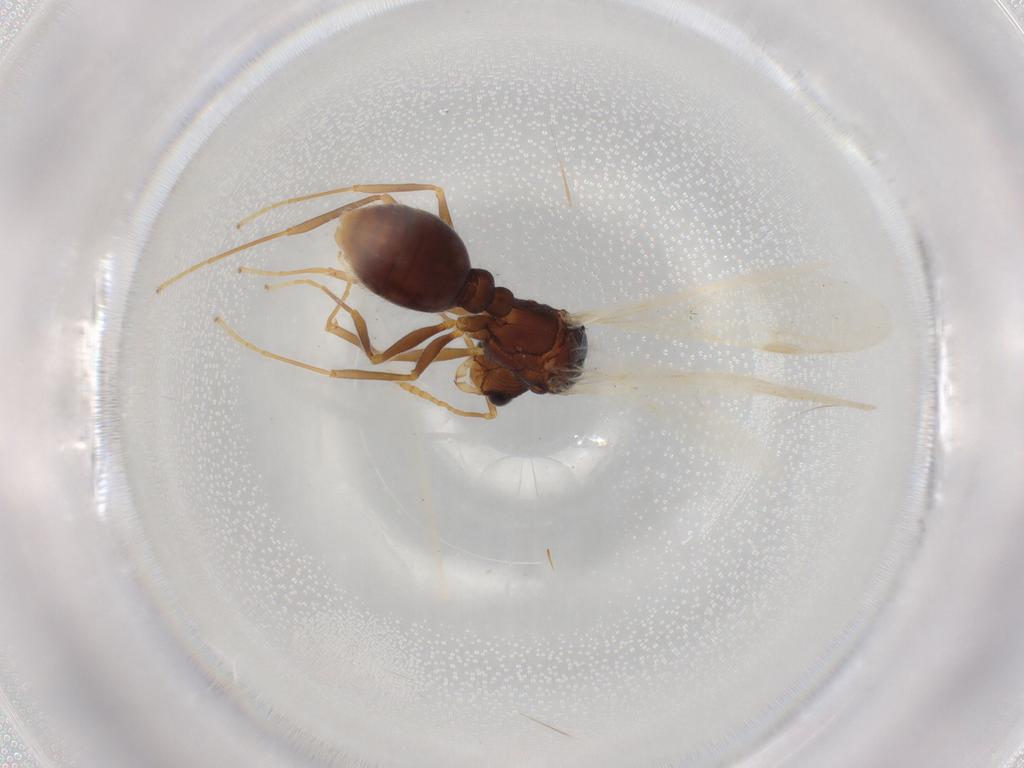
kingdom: Animalia
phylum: Arthropoda
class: Insecta
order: Hymenoptera
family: Formicidae
